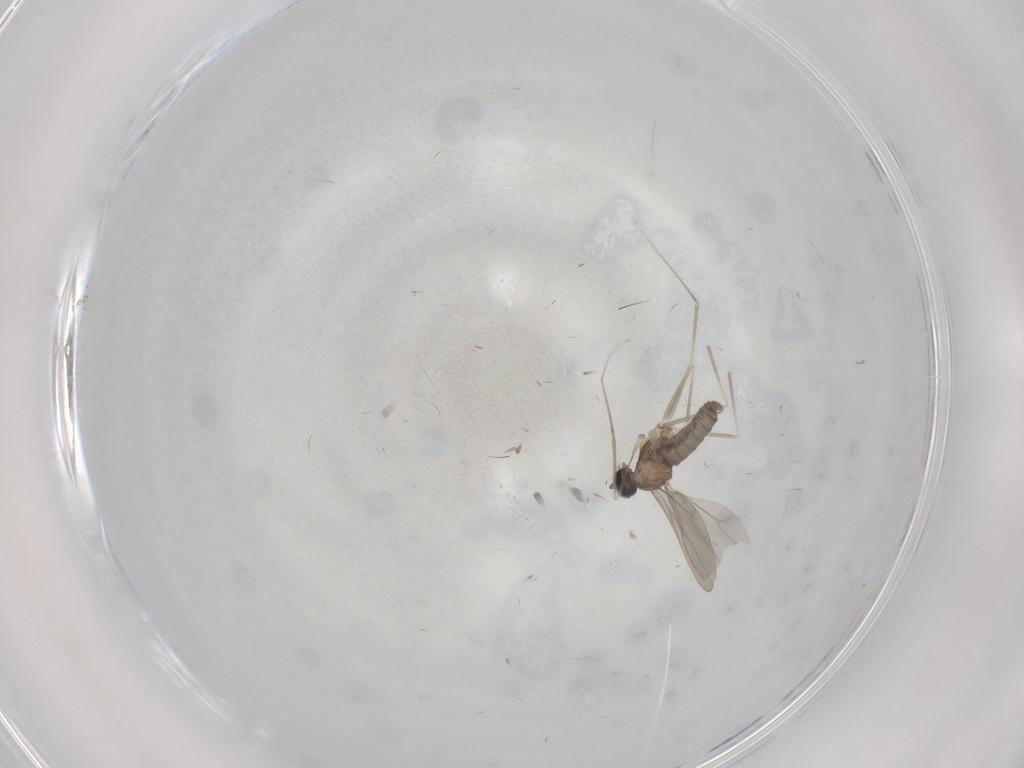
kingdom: Animalia
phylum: Arthropoda
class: Insecta
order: Diptera
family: Cecidomyiidae
